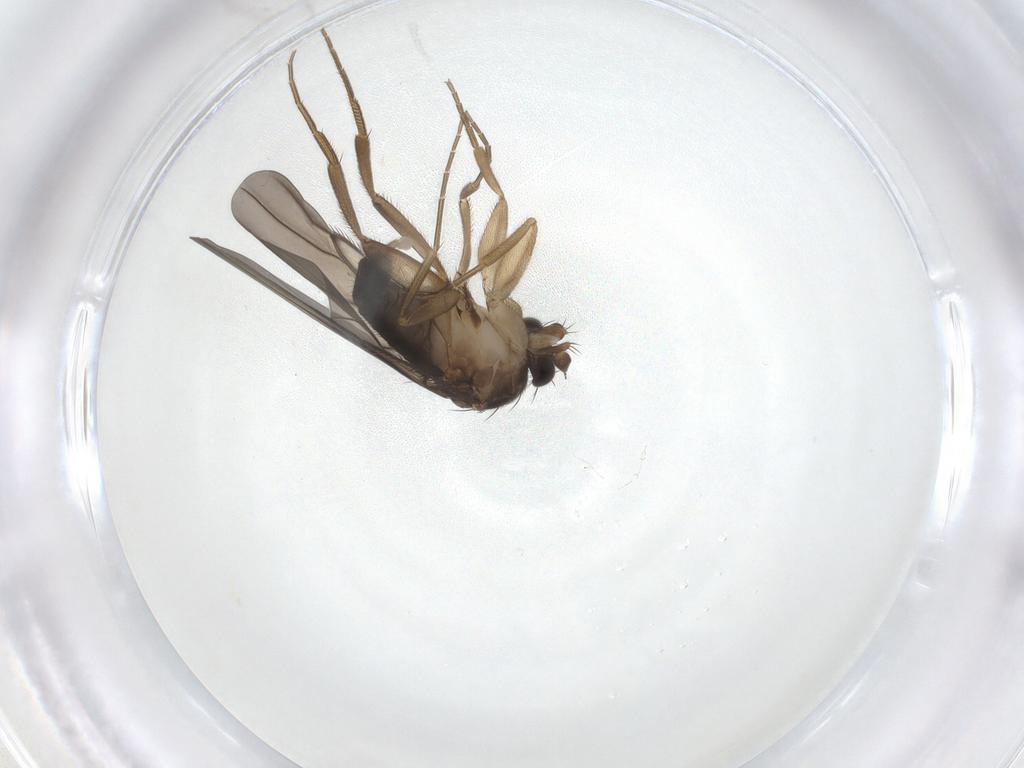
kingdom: Animalia
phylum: Arthropoda
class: Insecta
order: Diptera
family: Phoridae
